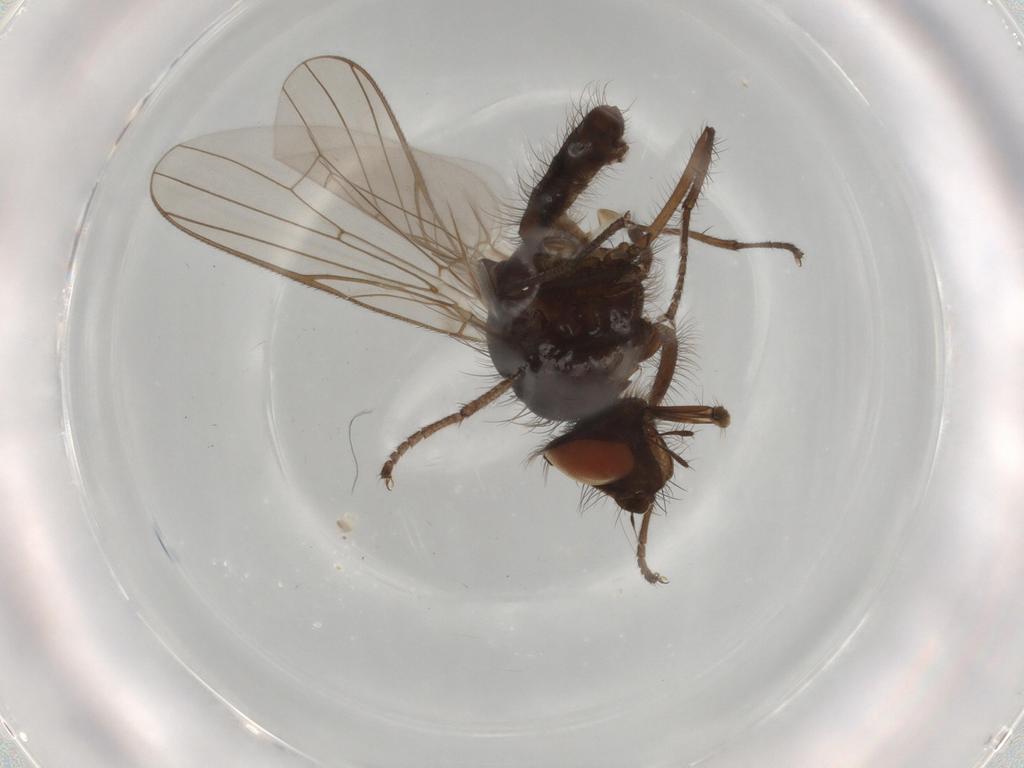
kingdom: Animalia
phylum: Arthropoda
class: Insecta
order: Diptera
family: Anthomyiidae
